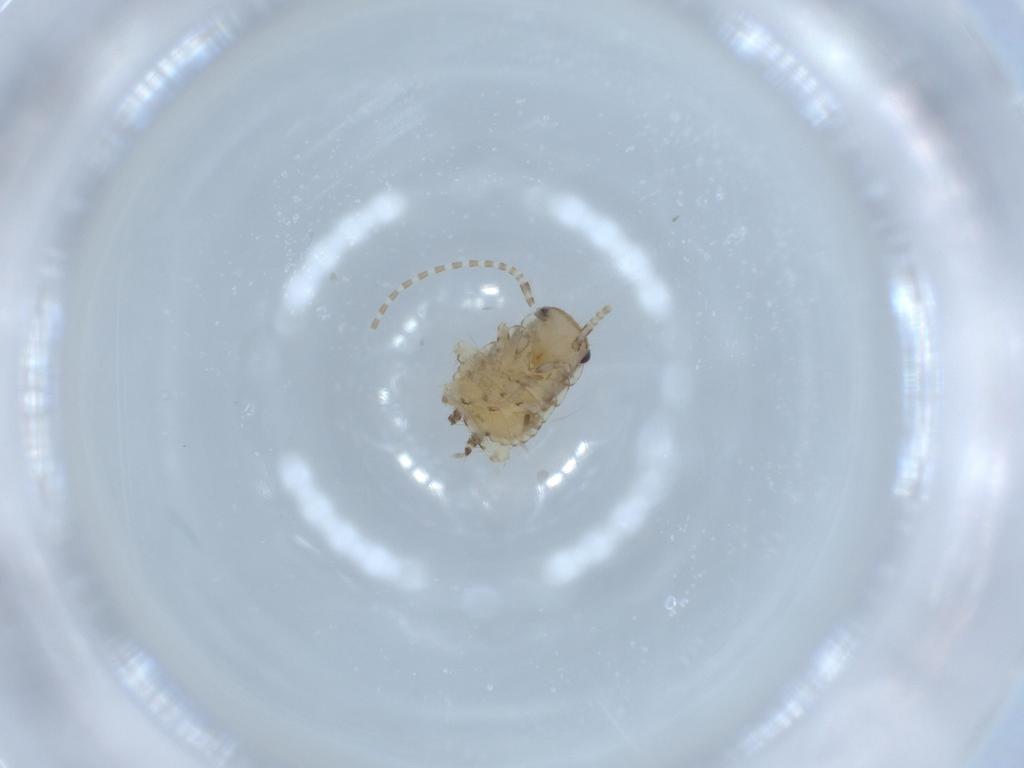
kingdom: Animalia
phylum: Arthropoda
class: Insecta
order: Blattodea
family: Ectobiidae
